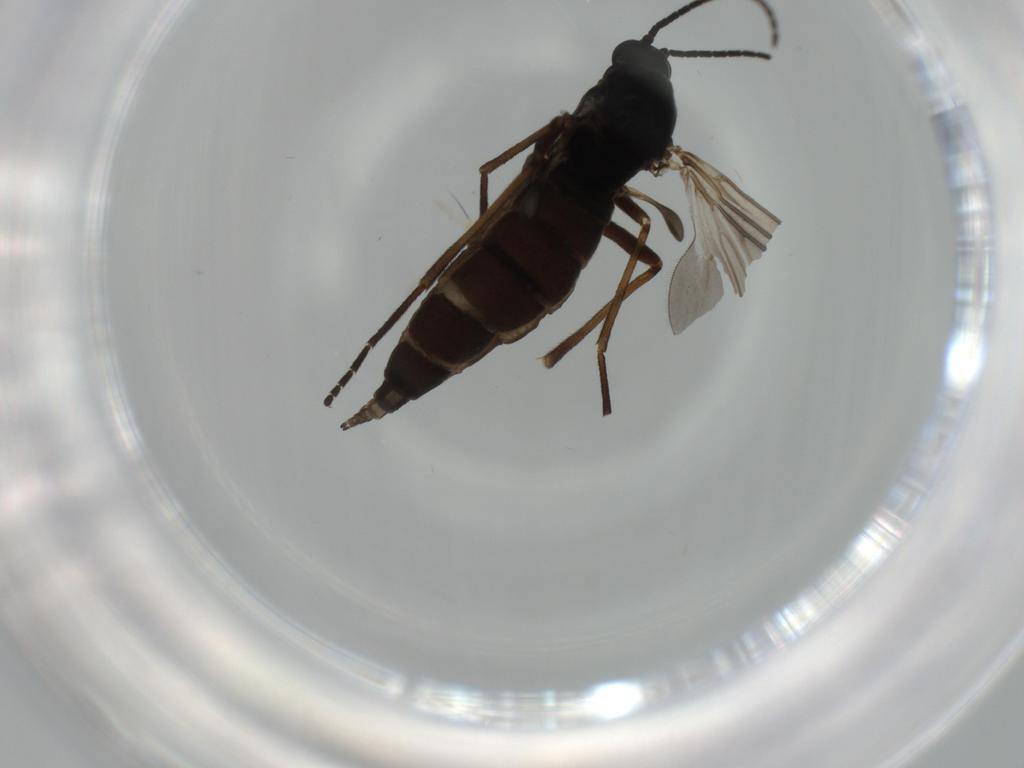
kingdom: Animalia
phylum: Arthropoda
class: Insecta
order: Diptera
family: Sciaridae
